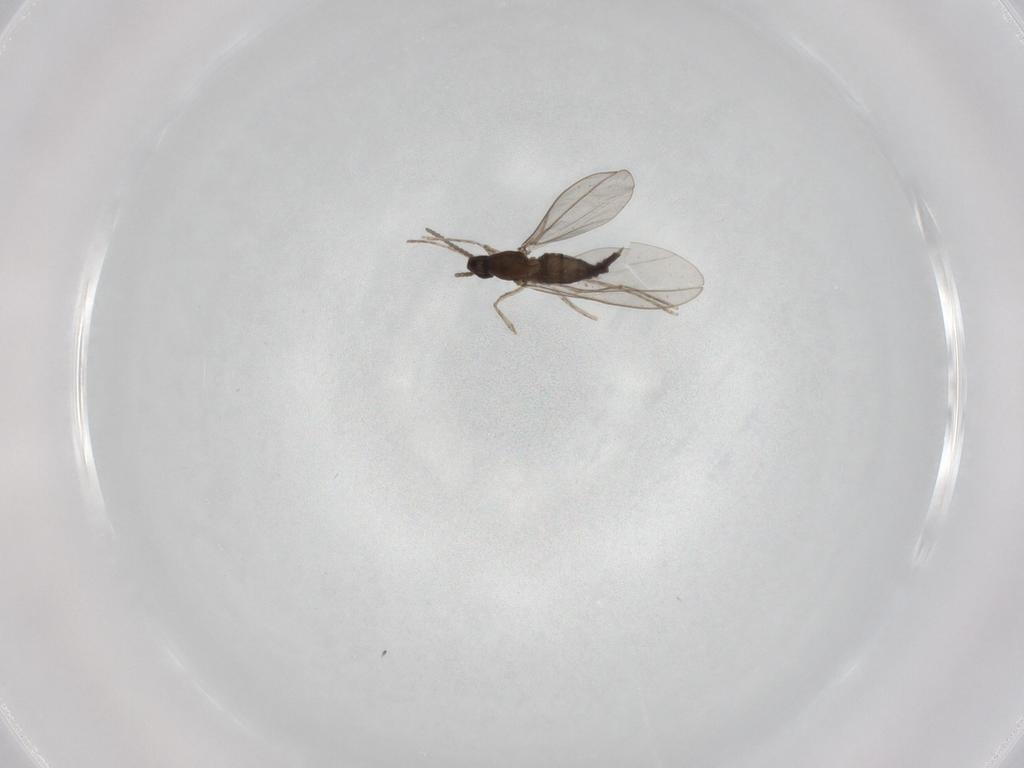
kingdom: Animalia
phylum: Arthropoda
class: Insecta
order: Diptera
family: Cecidomyiidae
